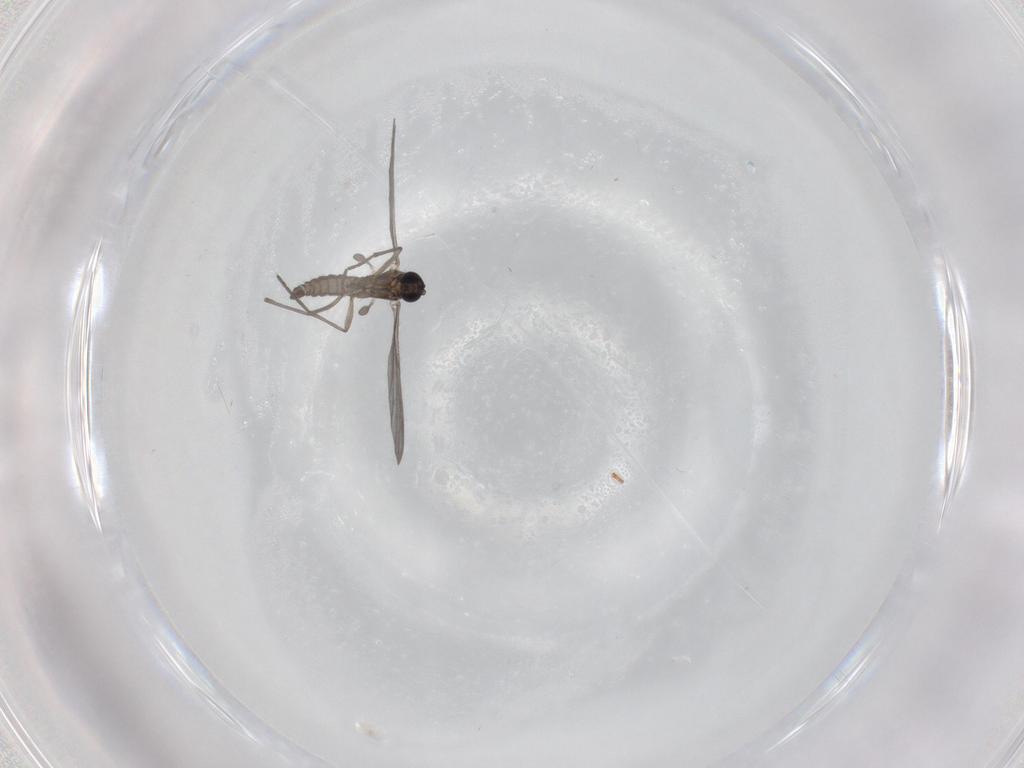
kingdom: Animalia
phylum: Arthropoda
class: Insecta
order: Diptera
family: Sciaridae
